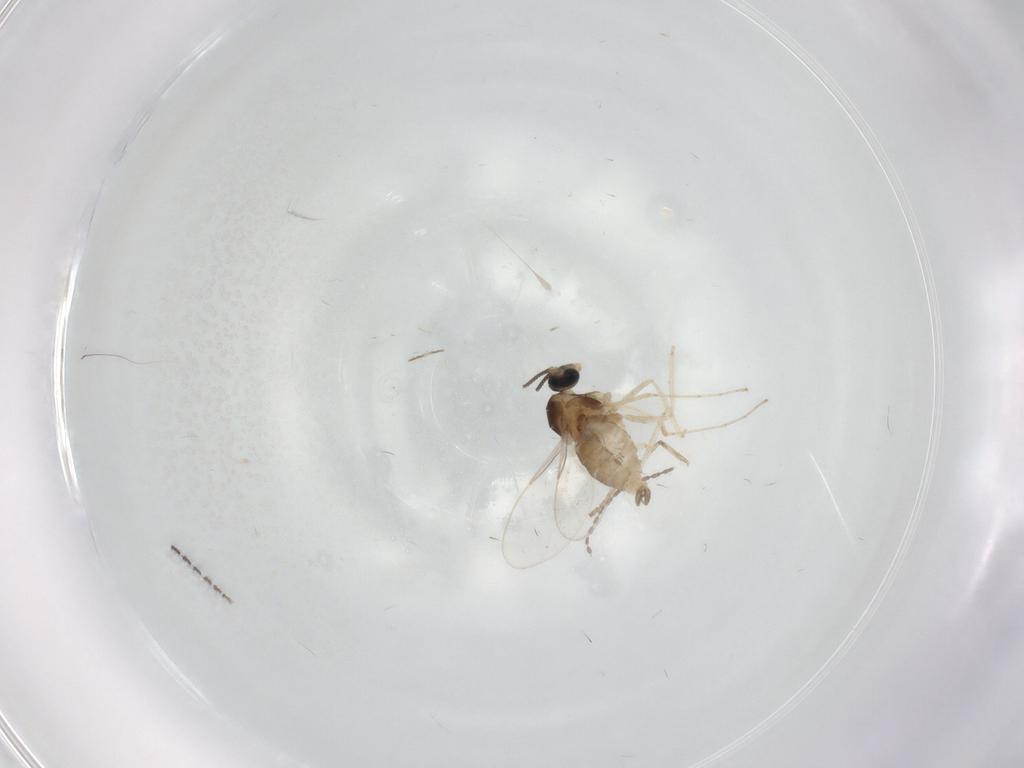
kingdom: Animalia
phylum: Arthropoda
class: Insecta
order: Diptera
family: Cecidomyiidae
